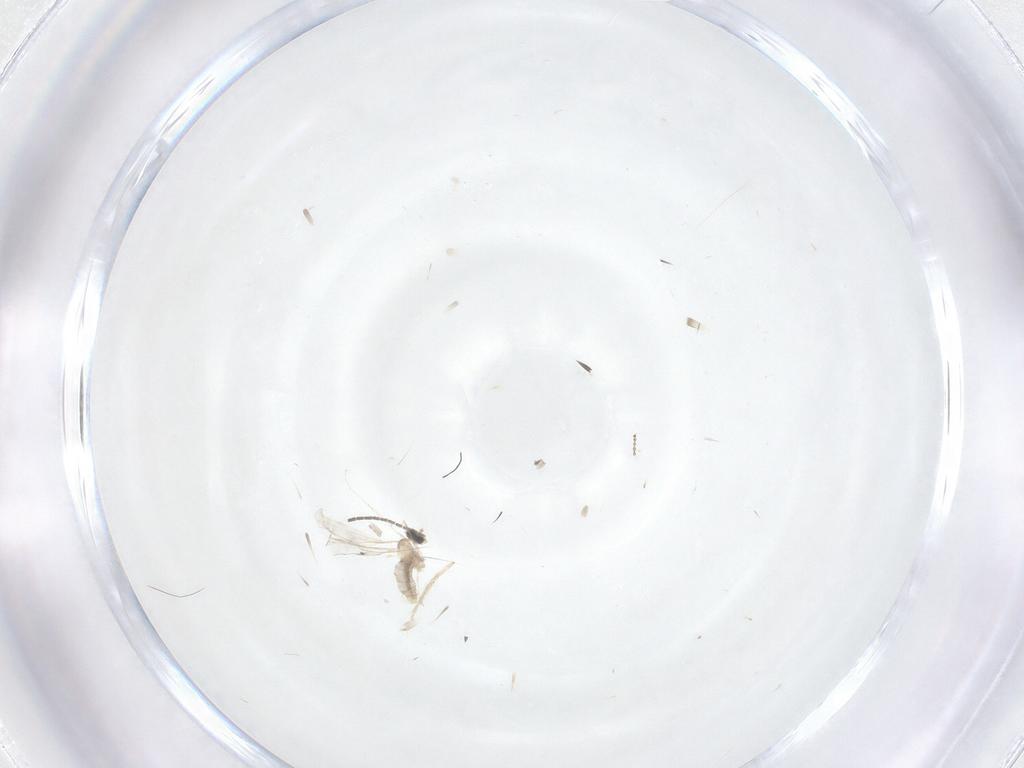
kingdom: Animalia
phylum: Arthropoda
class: Insecta
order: Diptera
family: Sciaridae
